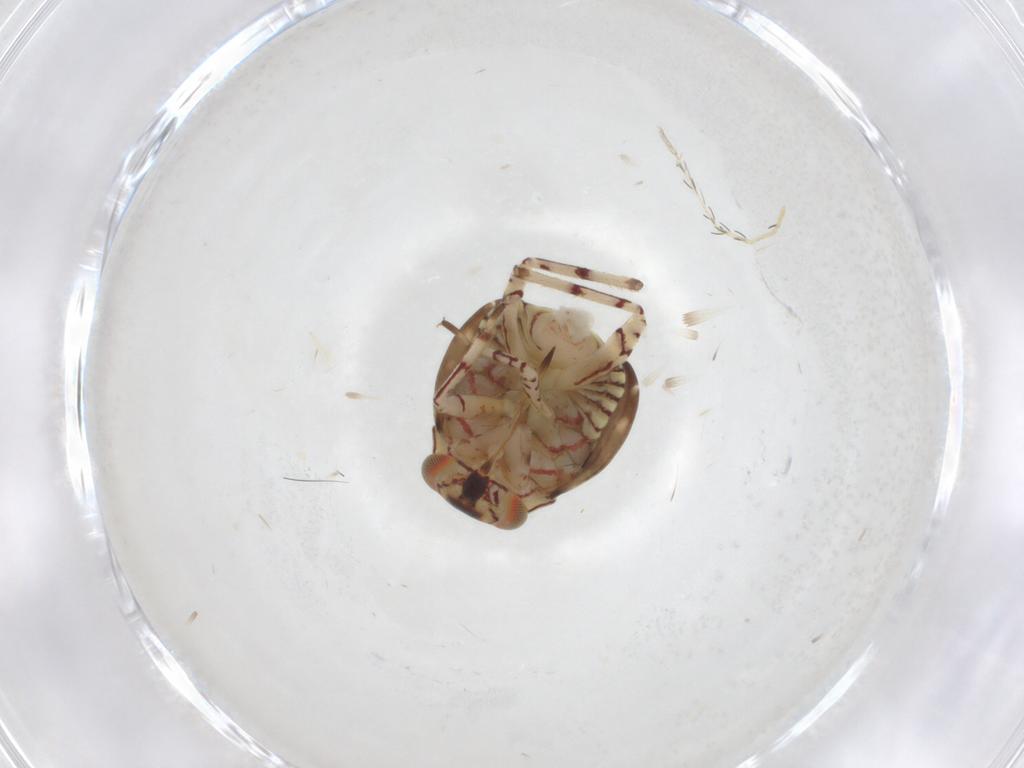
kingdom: Animalia
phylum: Arthropoda
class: Insecta
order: Hemiptera
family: Miridae
